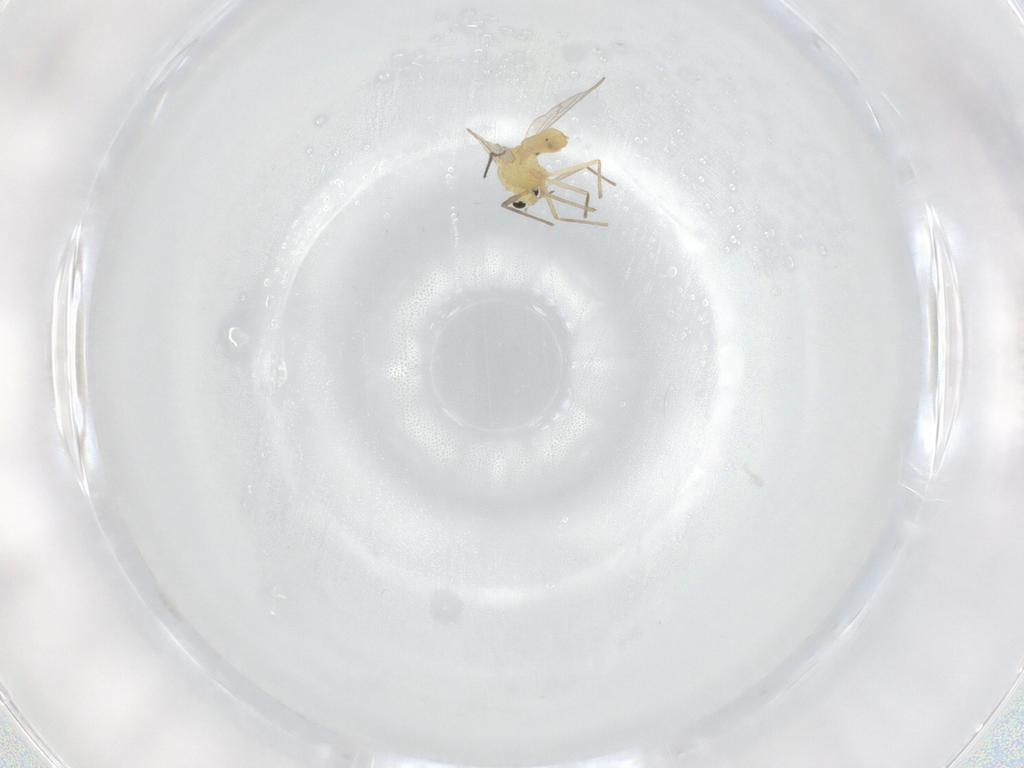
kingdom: Animalia
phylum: Arthropoda
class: Insecta
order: Diptera
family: Chironomidae
